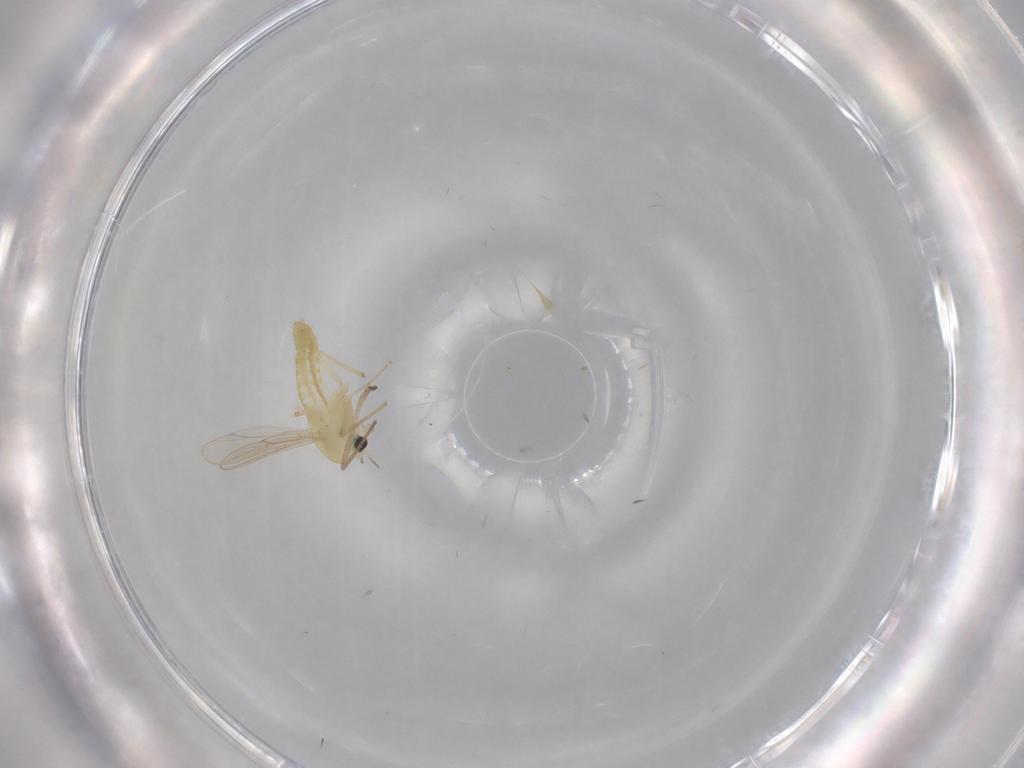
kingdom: Animalia
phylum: Arthropoda
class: Insecta
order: Diptera
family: Chironomidae
